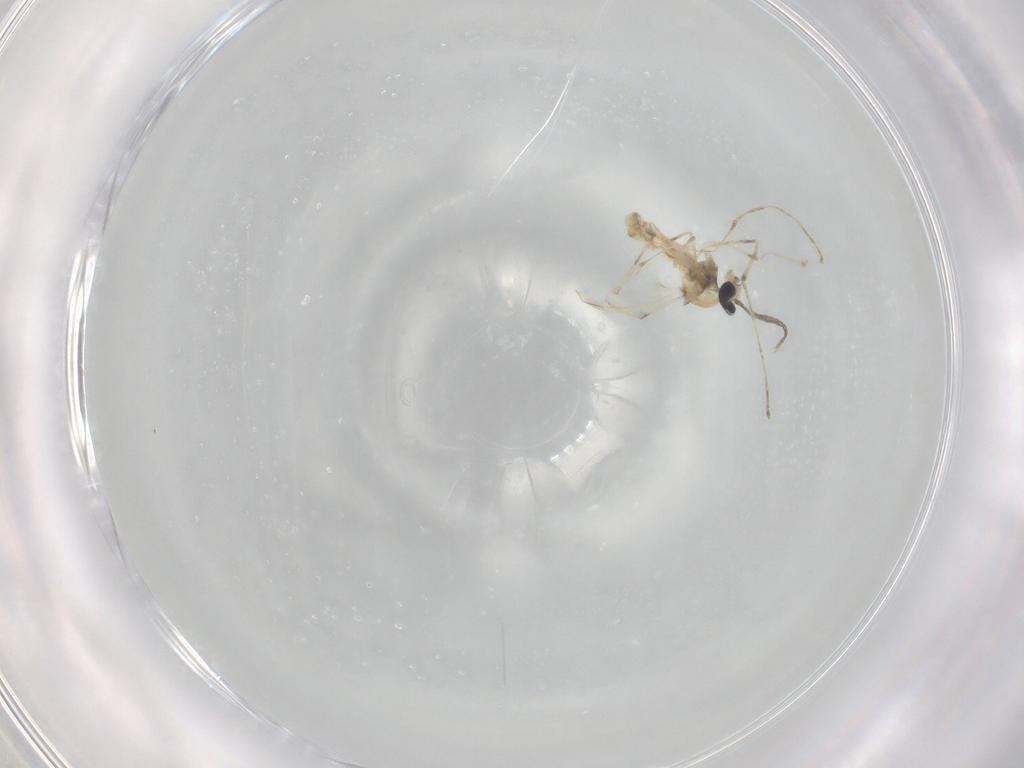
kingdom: Animalia
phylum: Arthropoda
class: Insecta
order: Diptera
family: Cecidomyiidae
